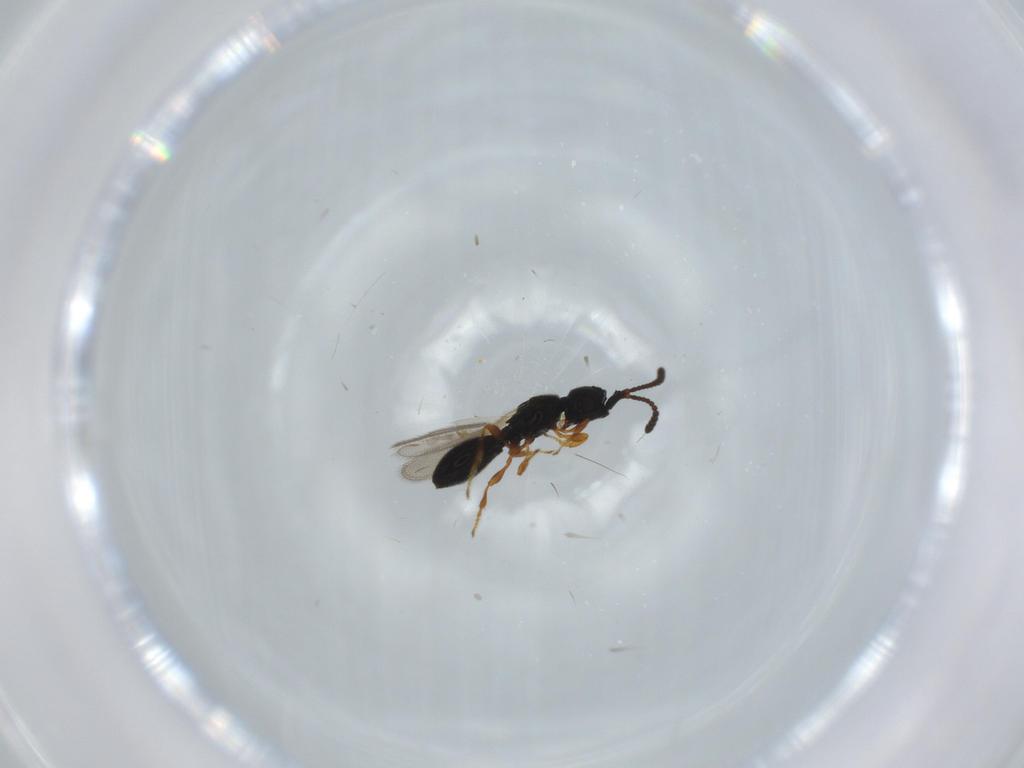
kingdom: Animalia
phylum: Arthropoda
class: Insecta
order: Hymenoptera
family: Diapriidae
